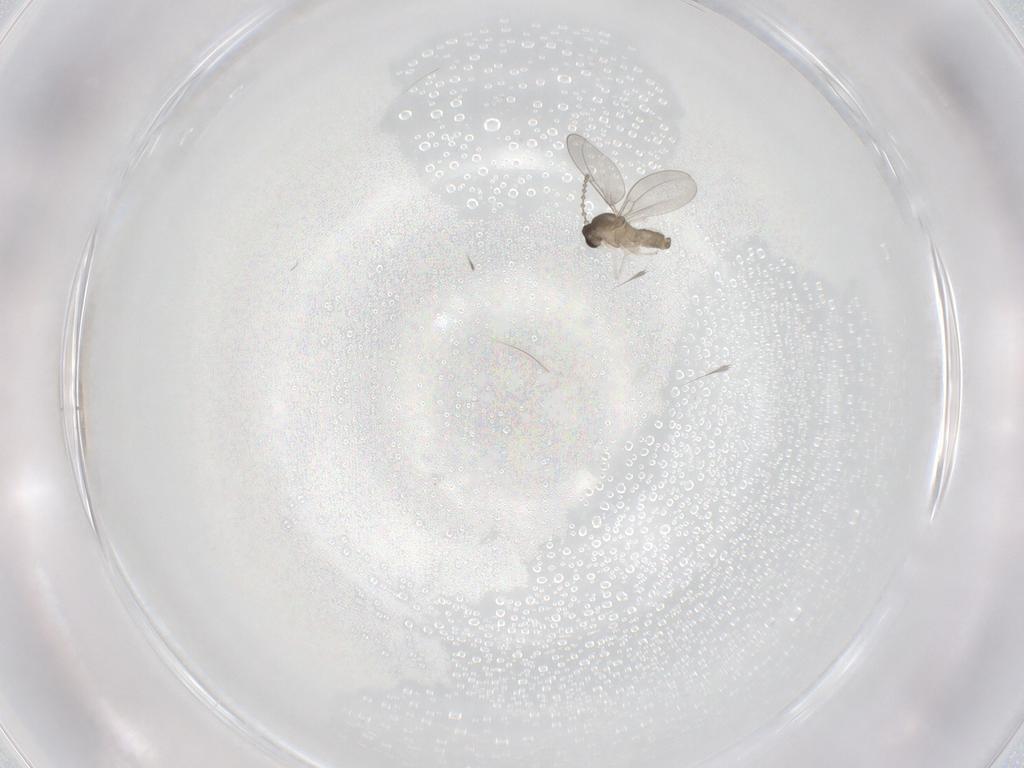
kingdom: Animalia
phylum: Arthropoda
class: Insecta
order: Diptera
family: Cecidomyiidae
